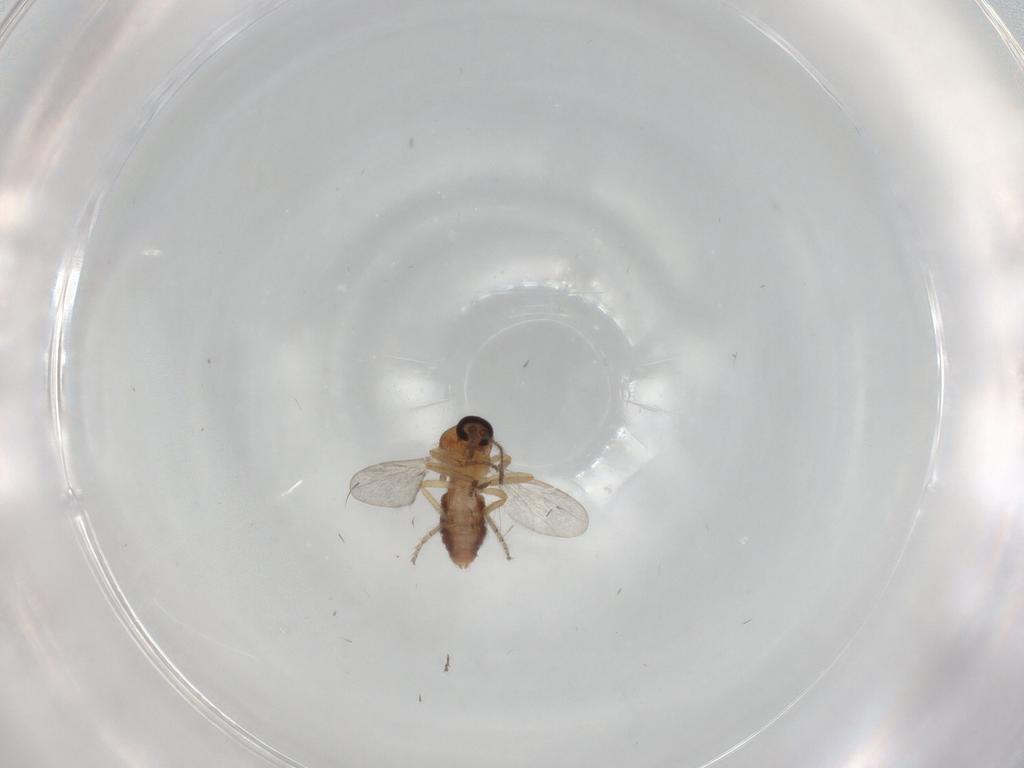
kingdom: Animalia
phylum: Arthropoda
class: Insecta
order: Diptera
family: Ceratopogonidae
